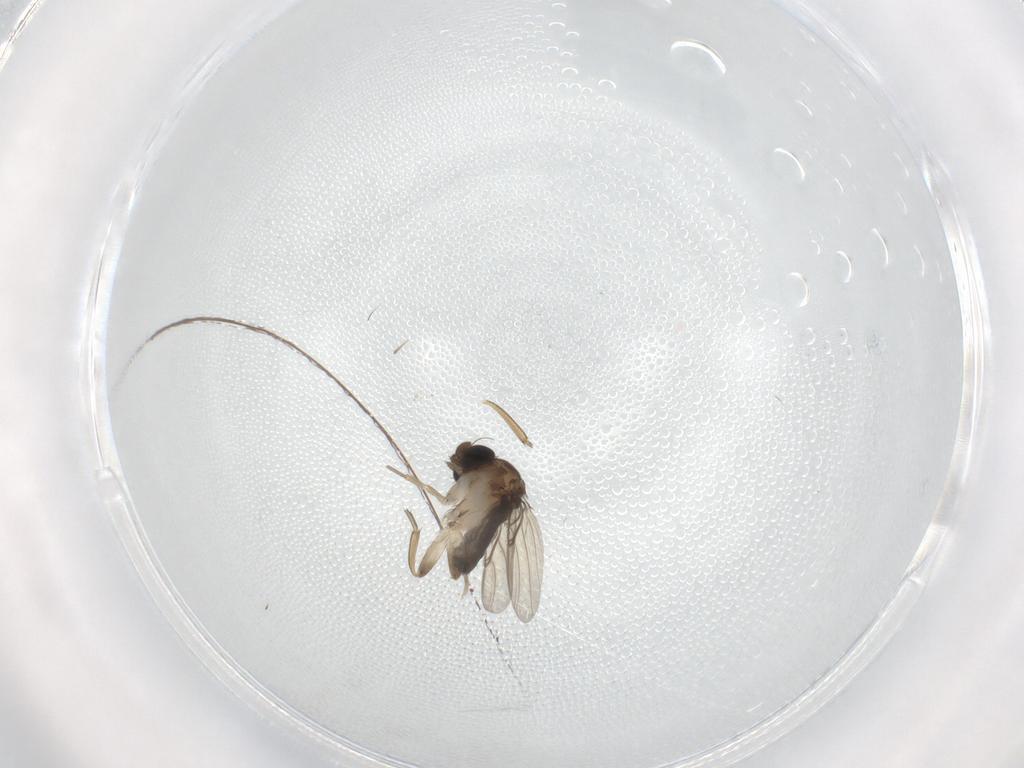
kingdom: Animalia
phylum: Arthropoda
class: Insecta
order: Diptera
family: Phoridae
